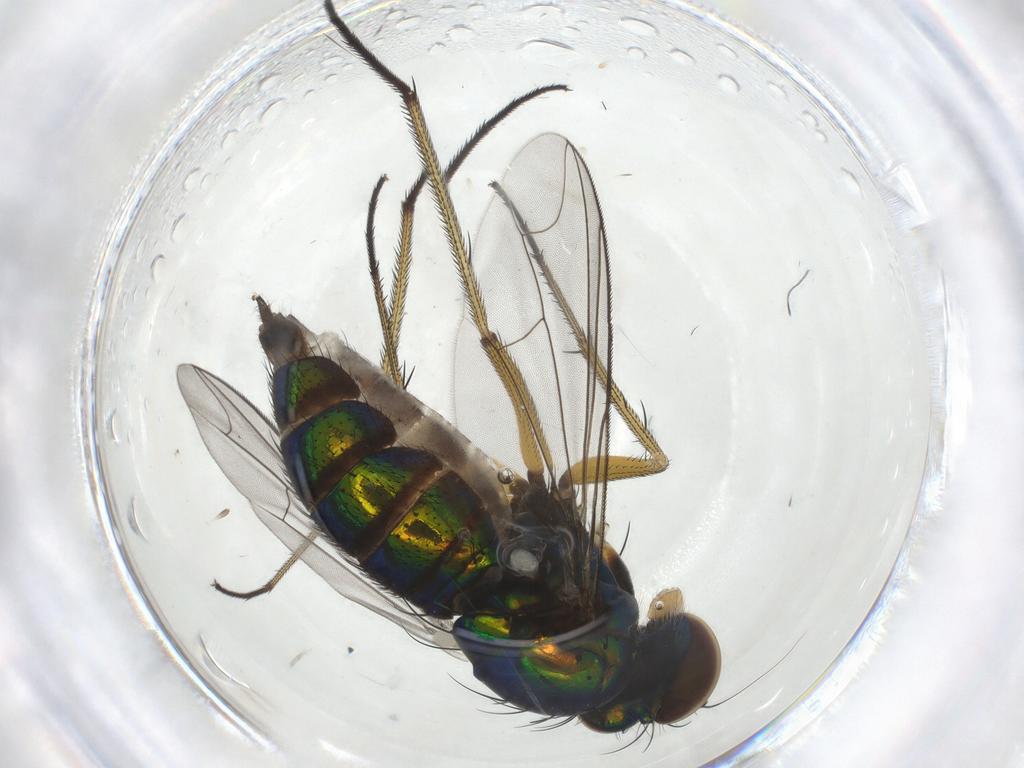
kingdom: Animalia
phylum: Arthropoda
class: Insecta
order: Diptera
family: Dolichopodidae
